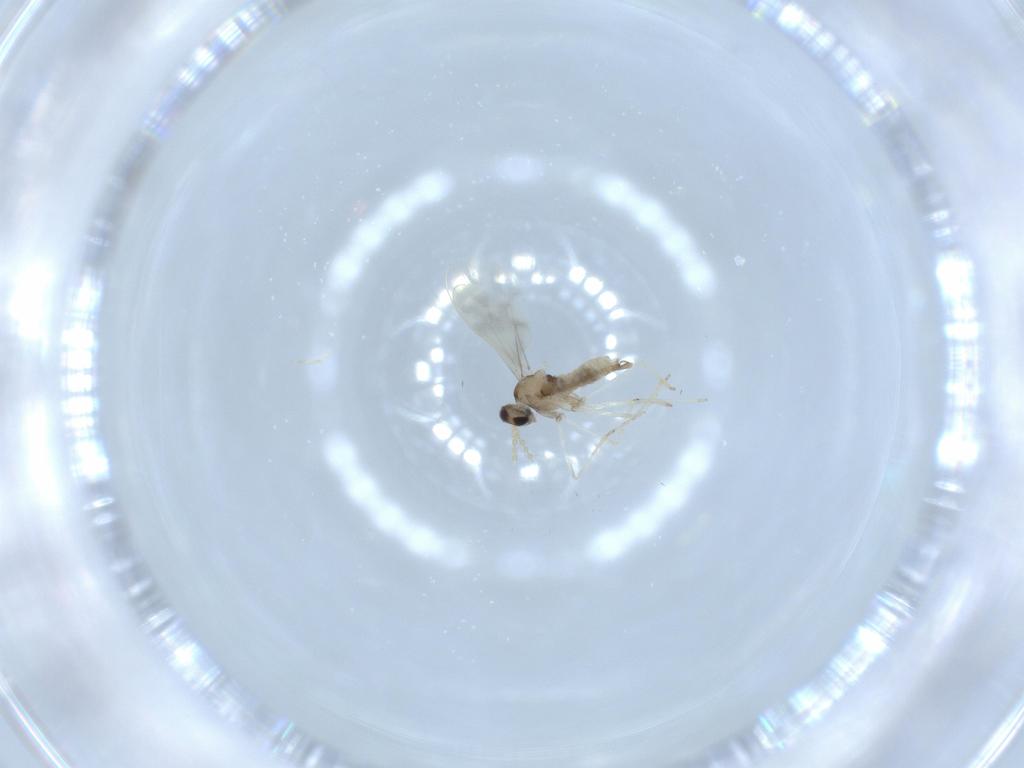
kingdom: Animalia
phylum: Arthropoda
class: Insecta
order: Diptera
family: Cecidomyiidae
